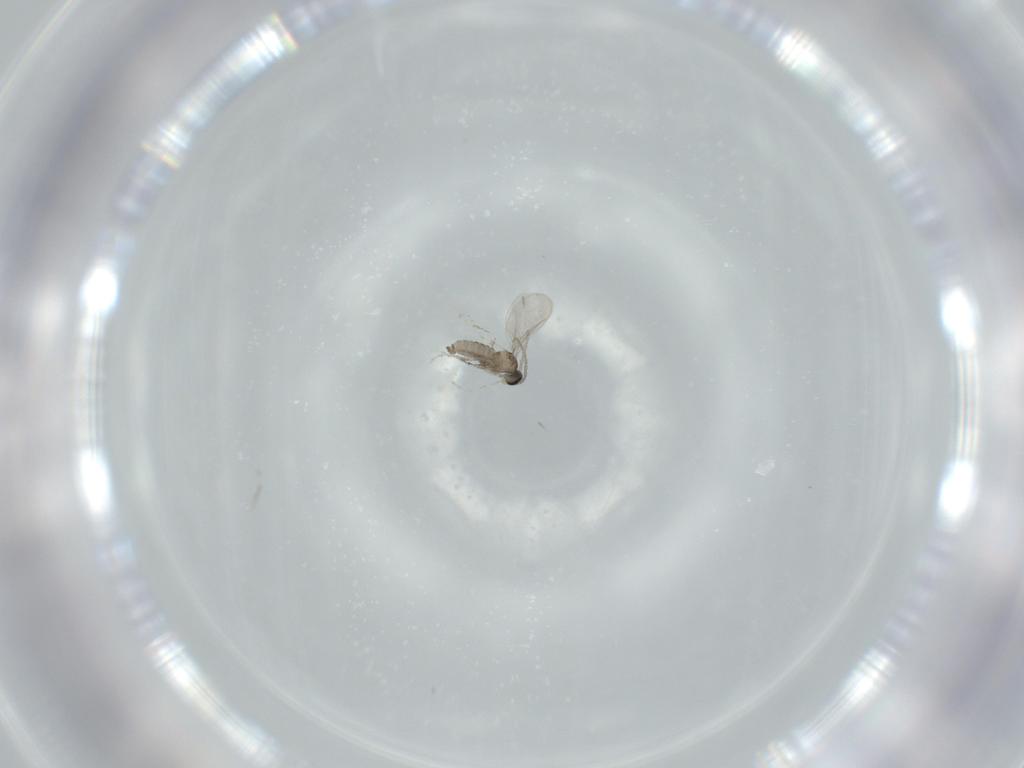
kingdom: Animalia
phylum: Arthropoda
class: Insecta
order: Diptera
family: Cecidomyiidae
